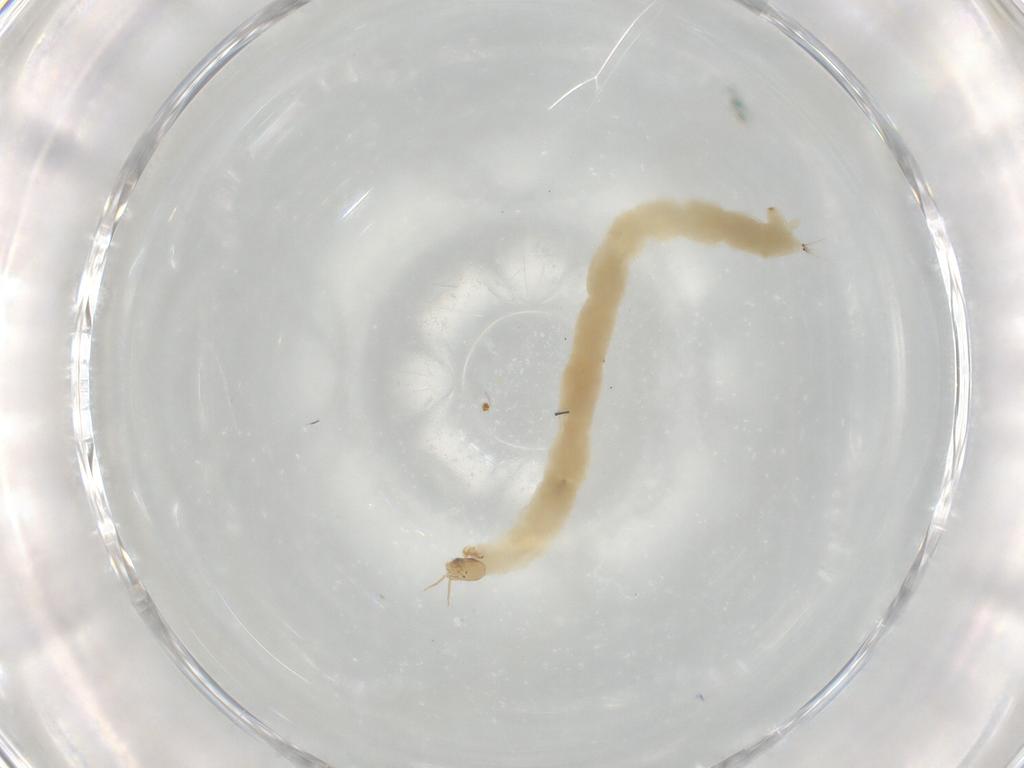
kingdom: Animalia
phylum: Arthropoda
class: Insecta
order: Diptera
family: Chironomidae
